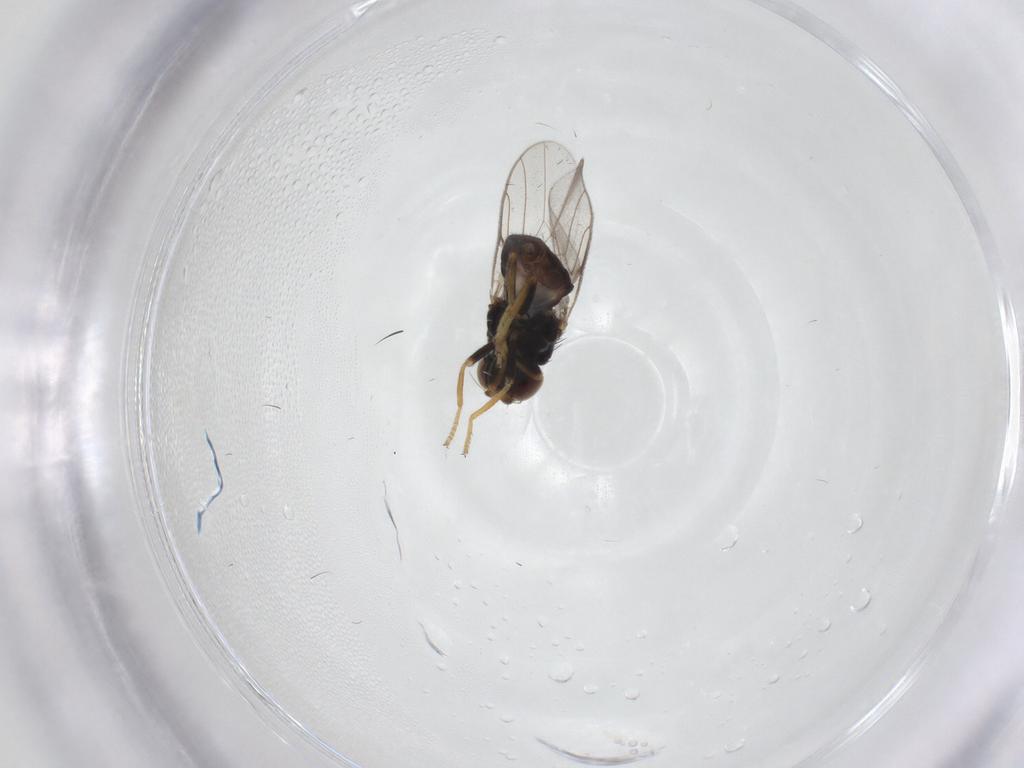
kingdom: Animalia
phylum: Arthropoda
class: Insecta
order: Diptera
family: Chloropidae
